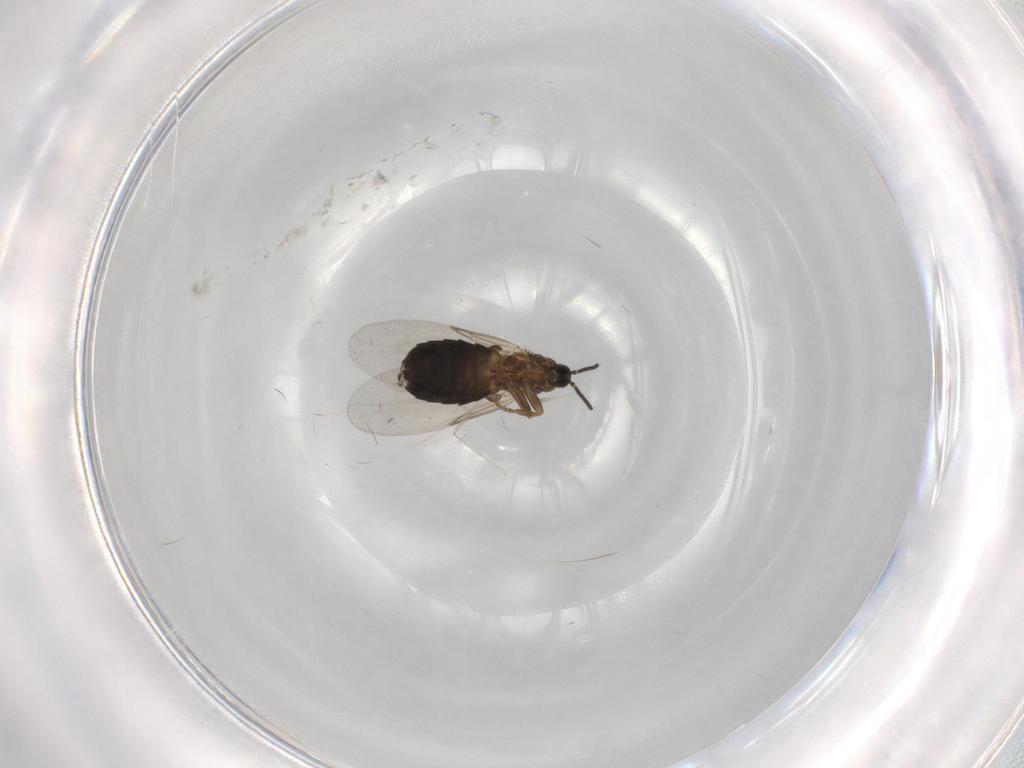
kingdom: Animalia
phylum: Arthropoda
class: Insecta
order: Diptera
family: Scatopsidae
